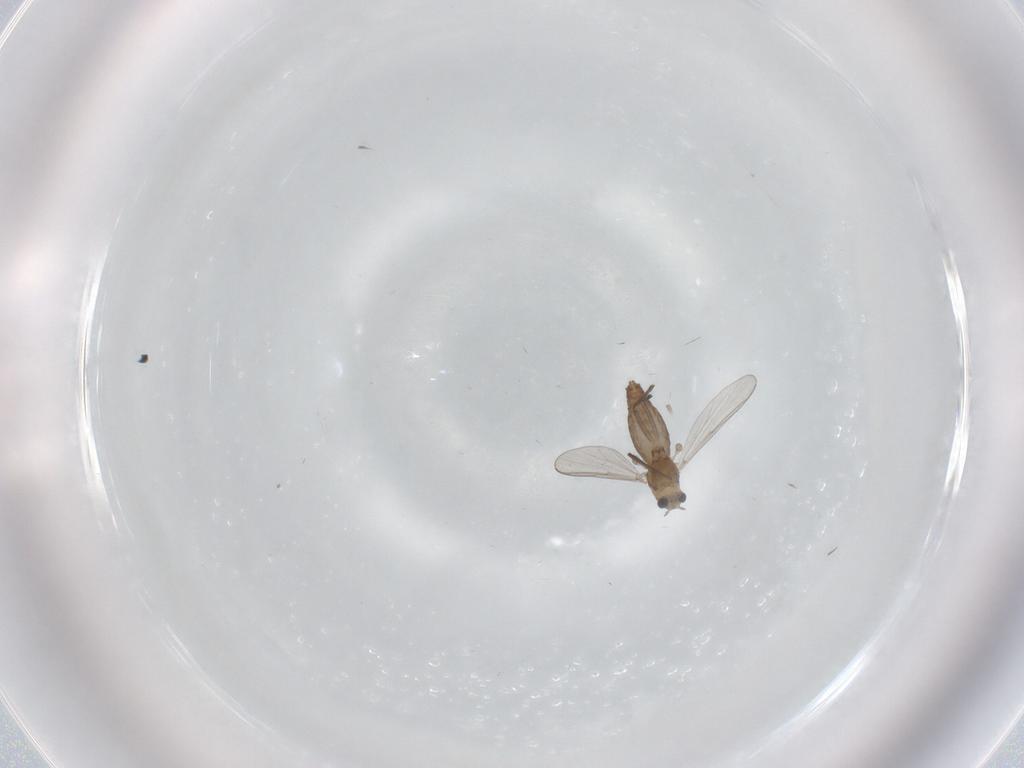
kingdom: Animalia
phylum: Arthropoda
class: Insecta
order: Diptera
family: Chironomidae
